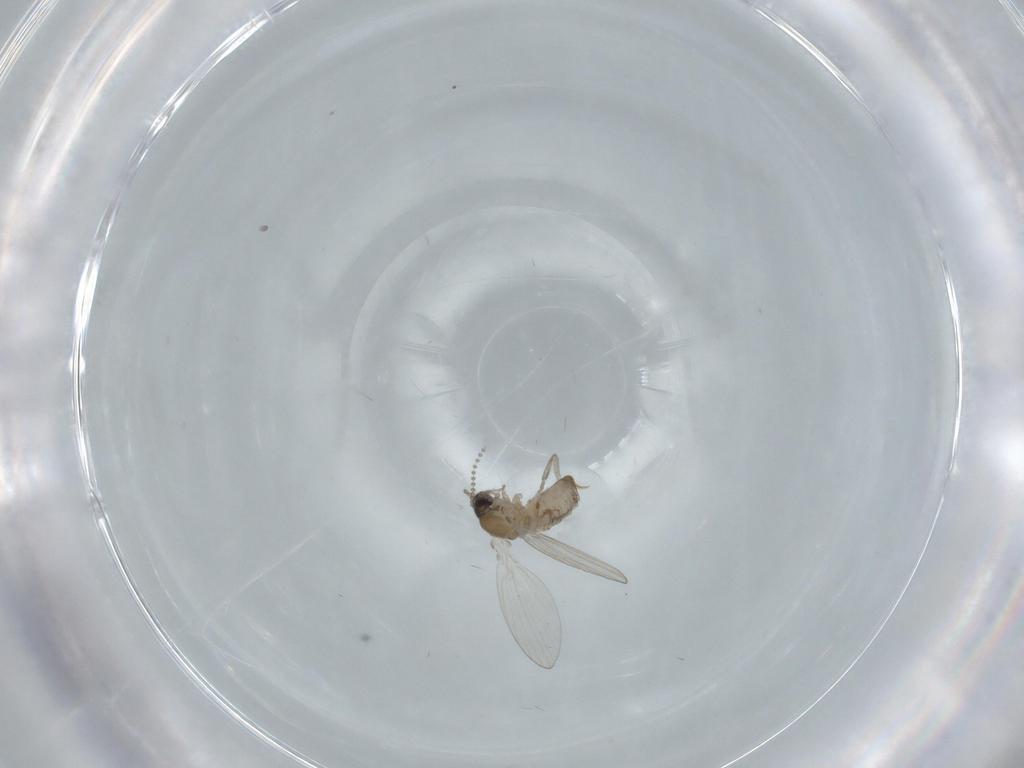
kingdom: Animalia
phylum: Arthropoda
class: Insecta
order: Diptera
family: Psychodidae
